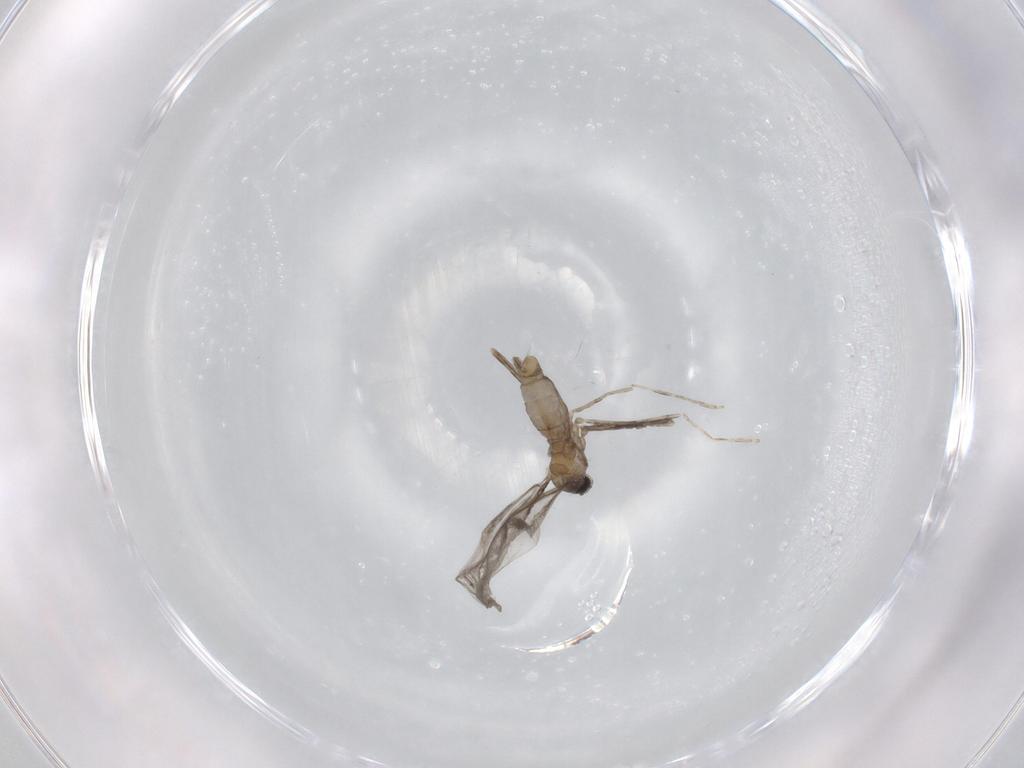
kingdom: Animalia
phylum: Arthropoda
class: Insecta
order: Diptera
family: Cecidomyiidae
